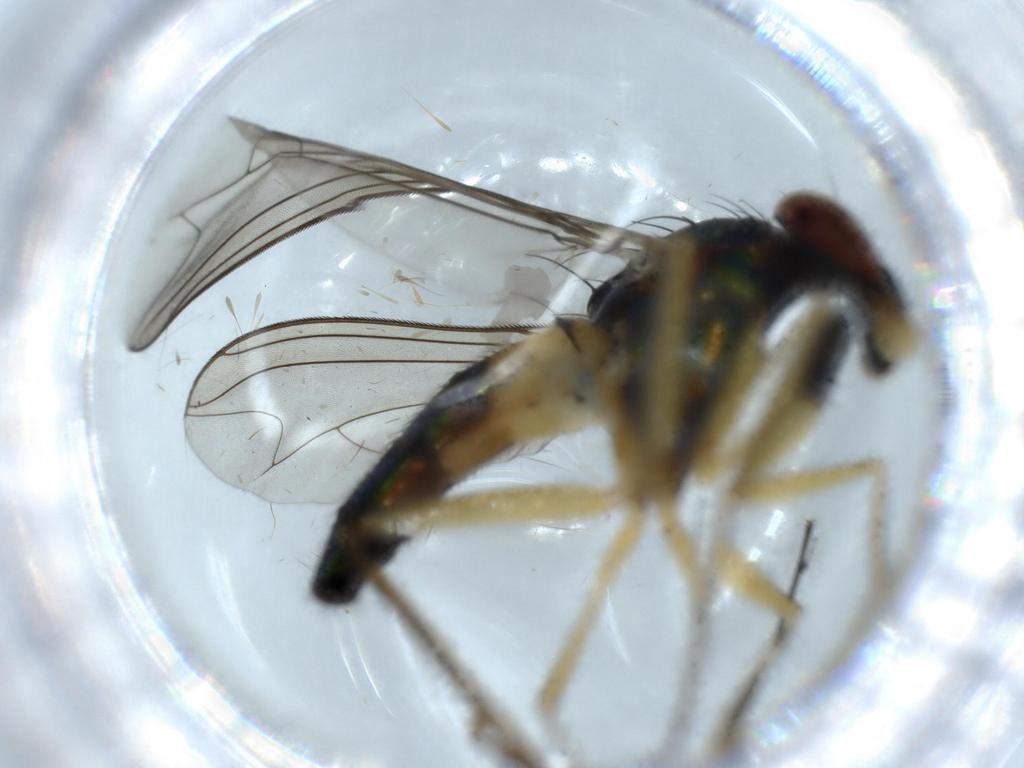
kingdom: Animalia
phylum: Arthropoda
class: Insecta
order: Diptera
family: Dolichopodidae
